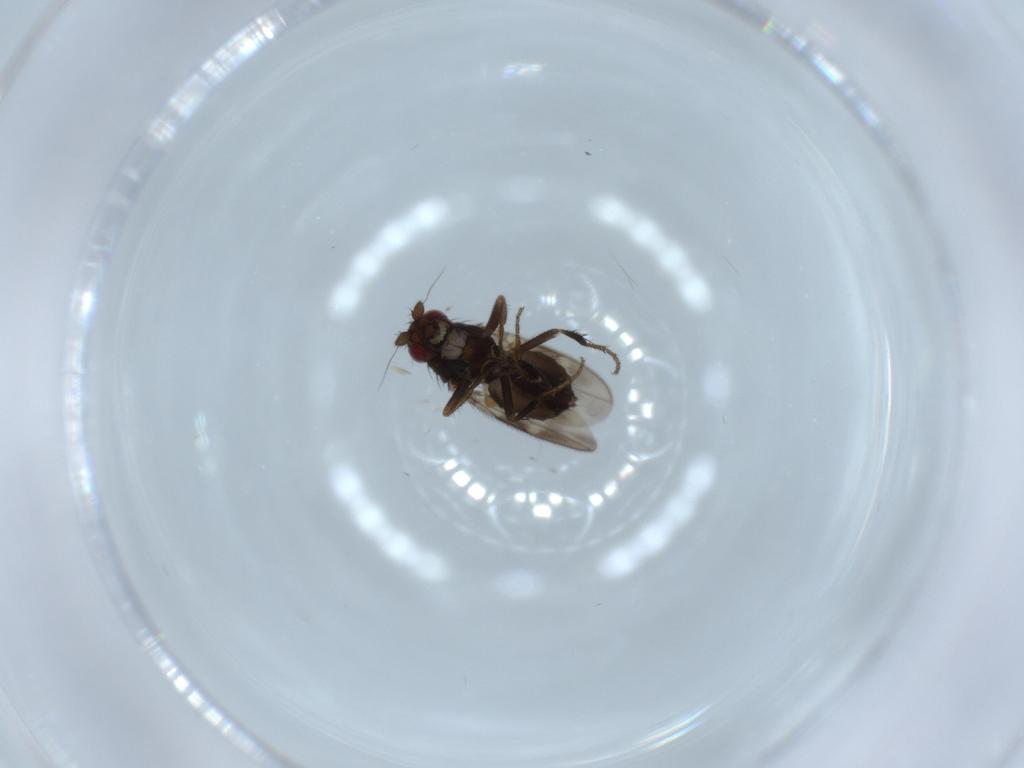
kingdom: Animalia
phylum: Arthropoda
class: Insecta
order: Diptera
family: Sphaeroceridae
